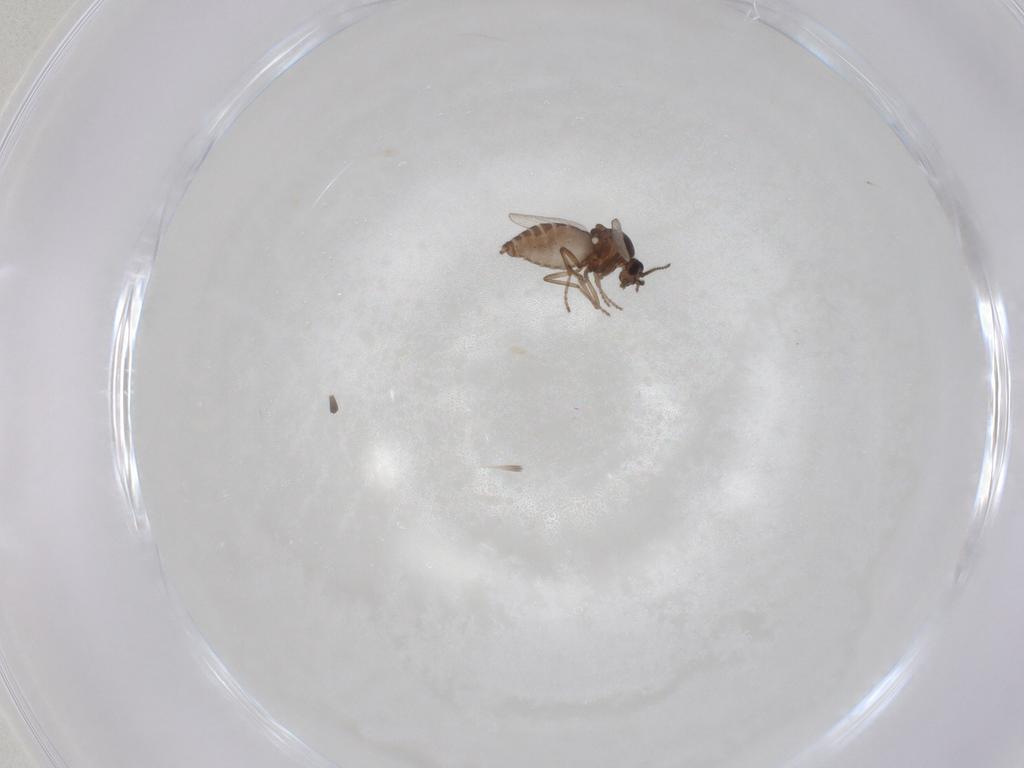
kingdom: Animalia
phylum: Arthropoda
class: Insecta
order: Diptera
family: Ceratopogonidae
